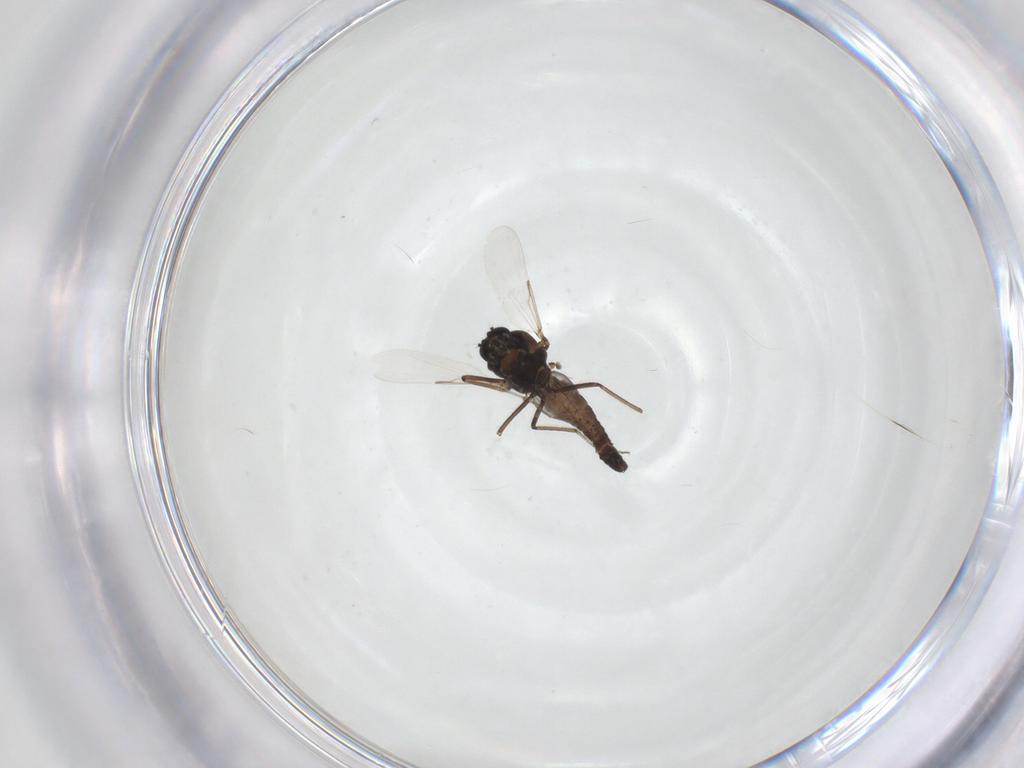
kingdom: Animalia
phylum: Arthropoda
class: Insecta
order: Diptera
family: Ceratopogonidae
